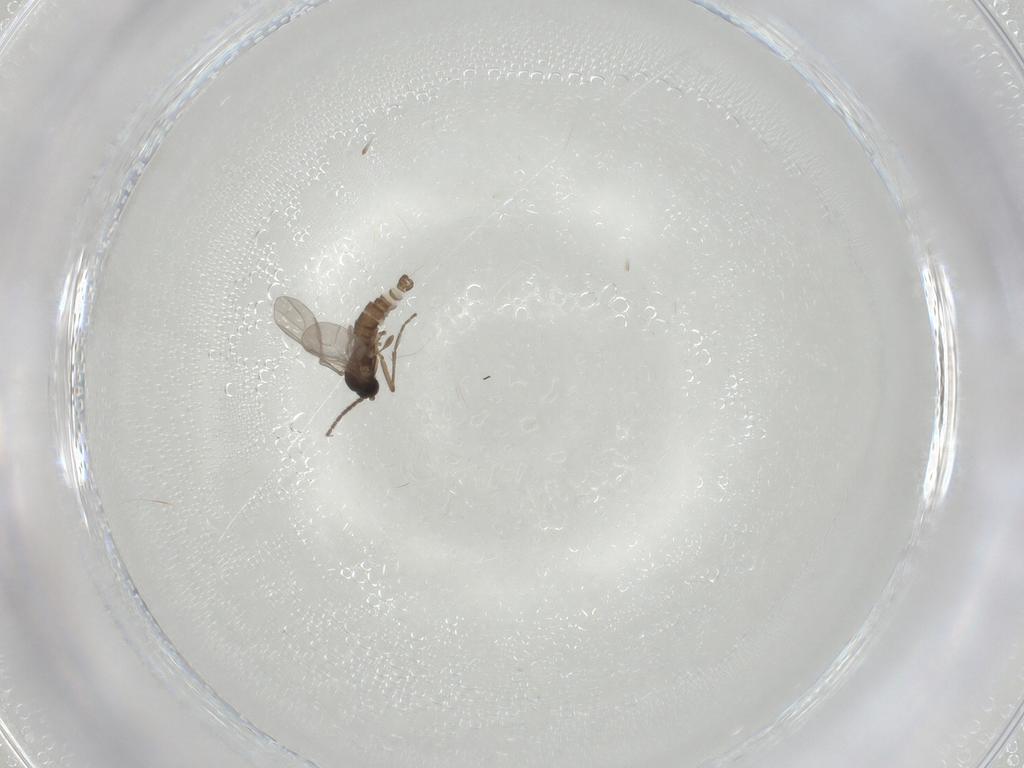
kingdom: Animalia
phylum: Arthropoda
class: Insecta
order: Diptera
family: Sciaridae
